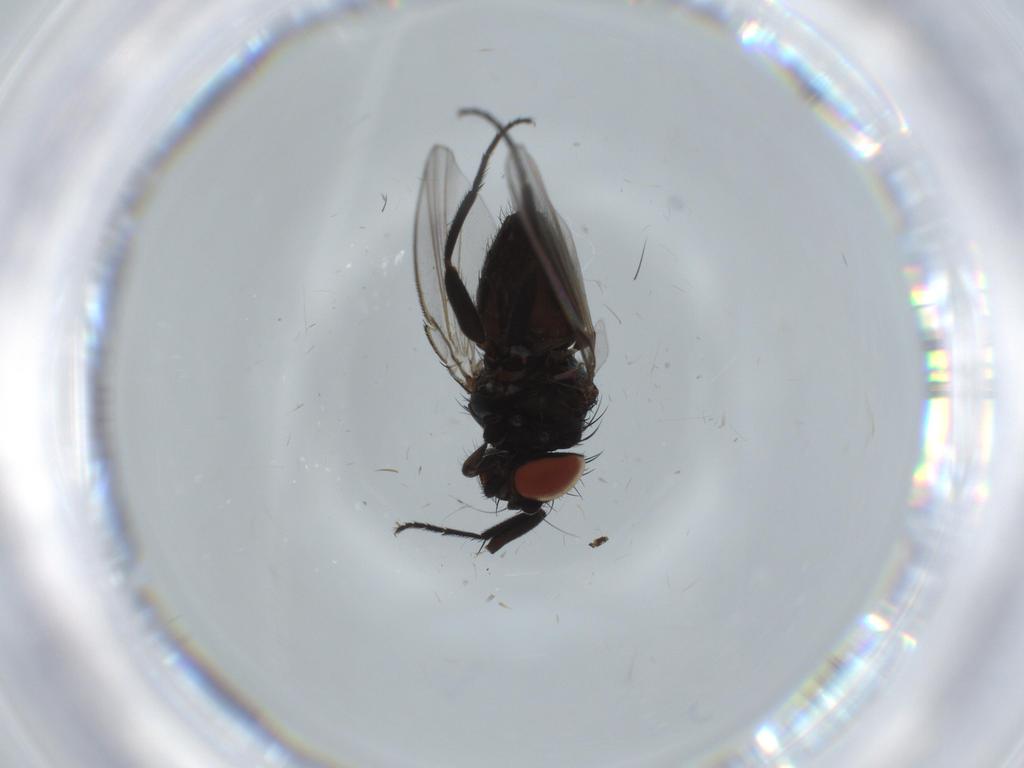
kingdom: Animalia
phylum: Arthropoda
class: Insecta
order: Diptera
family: Milichiidae
